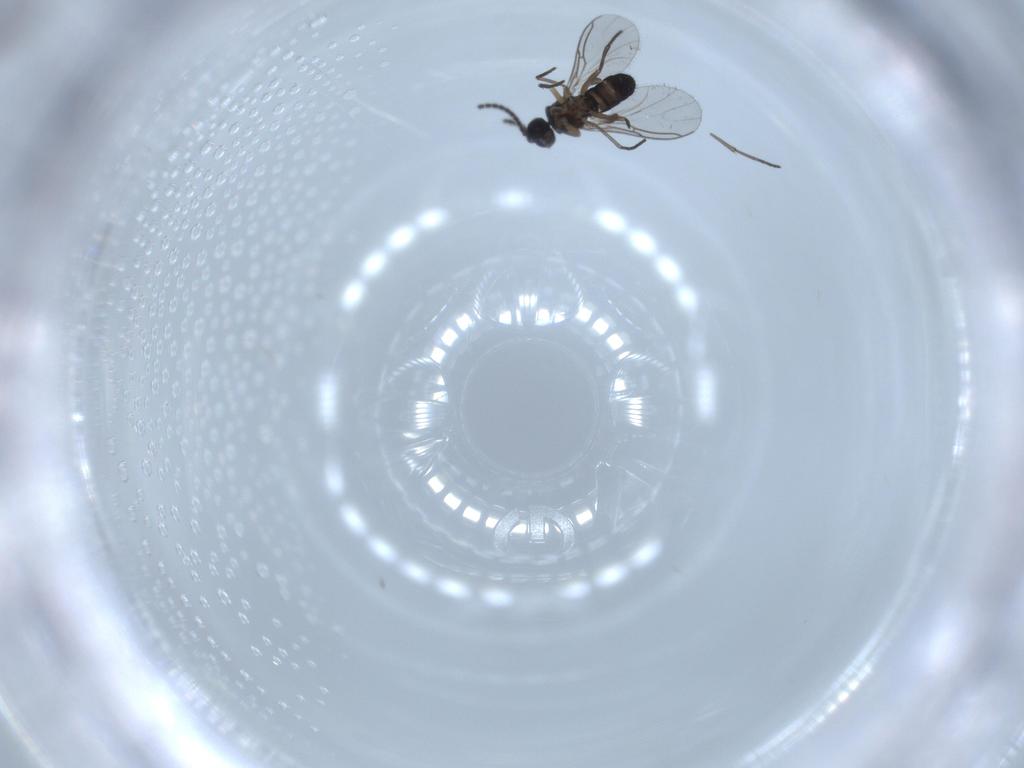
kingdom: Animalia
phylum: Arthropoda
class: Insecta
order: Diptera
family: Sciaridae
